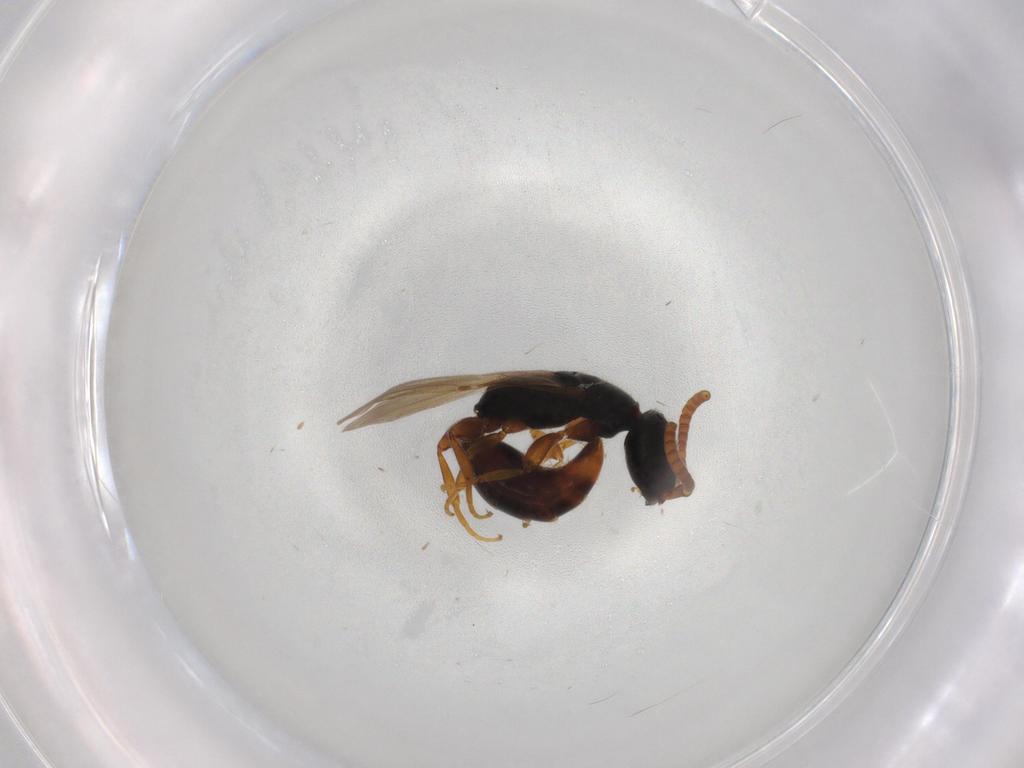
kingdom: Animalia
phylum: Arthropoda
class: Insecta
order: Hymenoptera
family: Bethylidae
